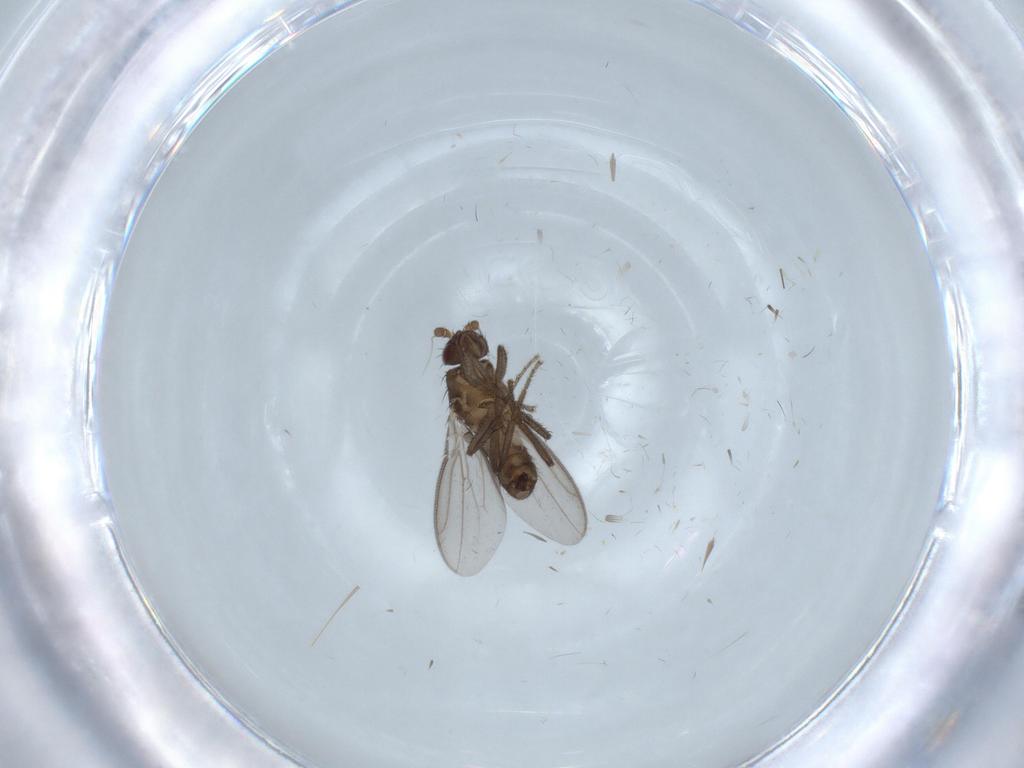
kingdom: Animalia
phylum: Arthropoda
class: Insecta
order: Diptera
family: Sphaeroceridae
